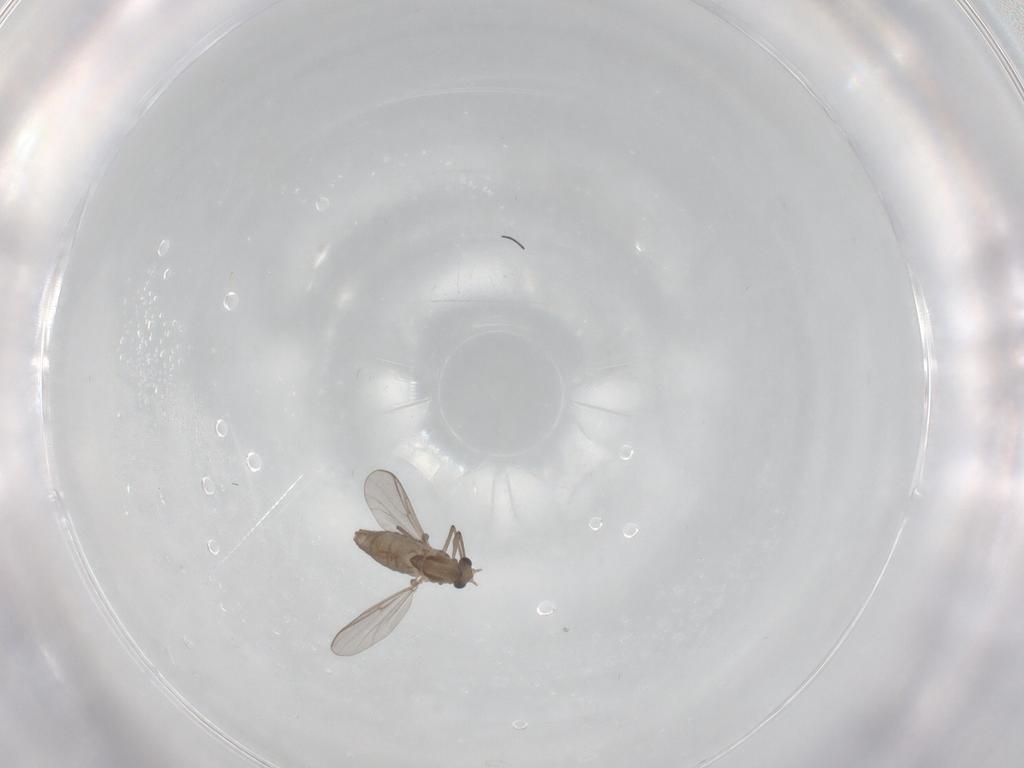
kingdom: Animalia
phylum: Arthropoda
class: Insecta
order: Diptera
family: Chironomidae
